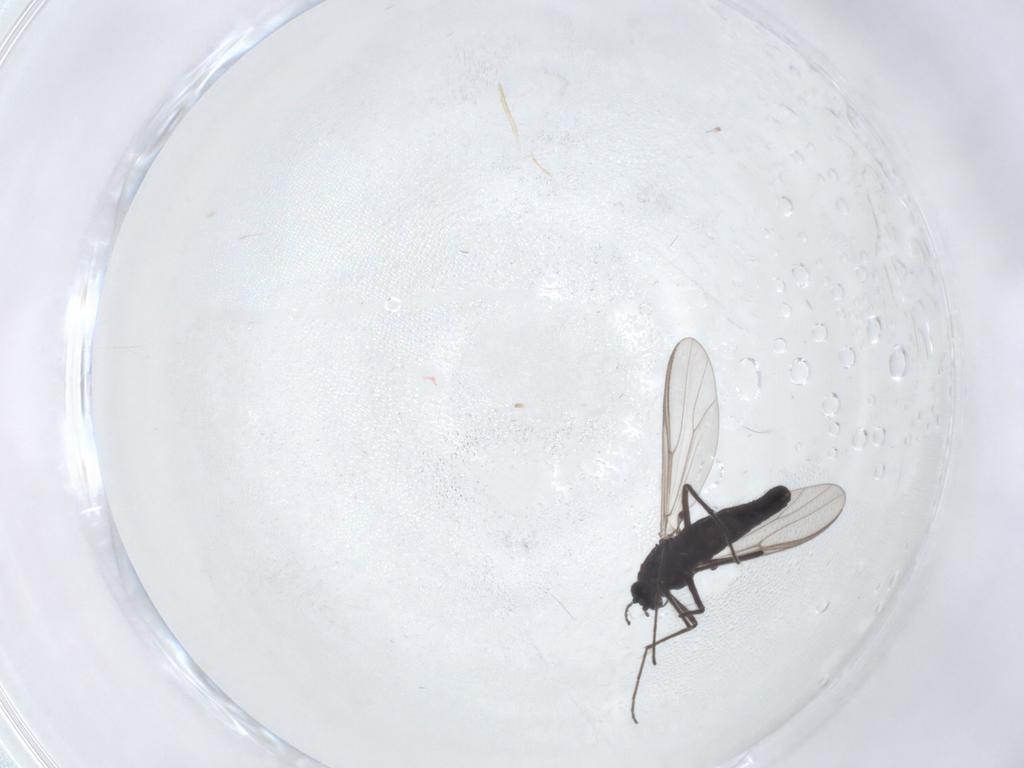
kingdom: Animalia
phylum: Arthropoda
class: Insecta
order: Diptera
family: Chironomidae
